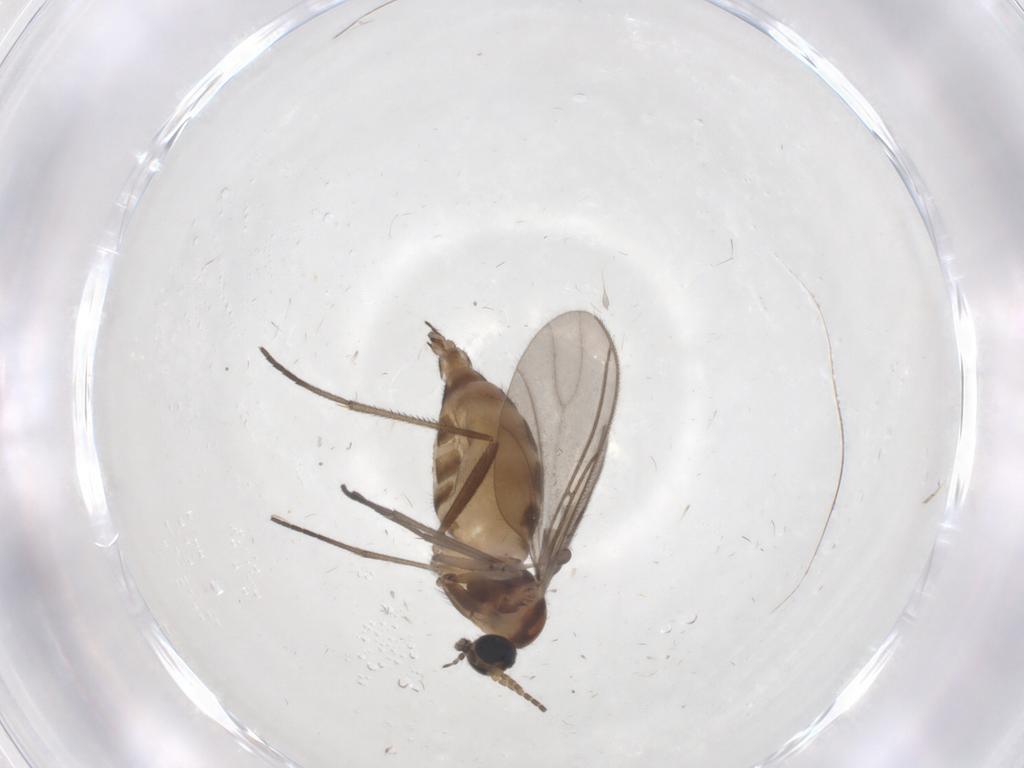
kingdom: Animalia
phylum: Arthropoda
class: Insecta
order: Diptera
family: Sciaridae
